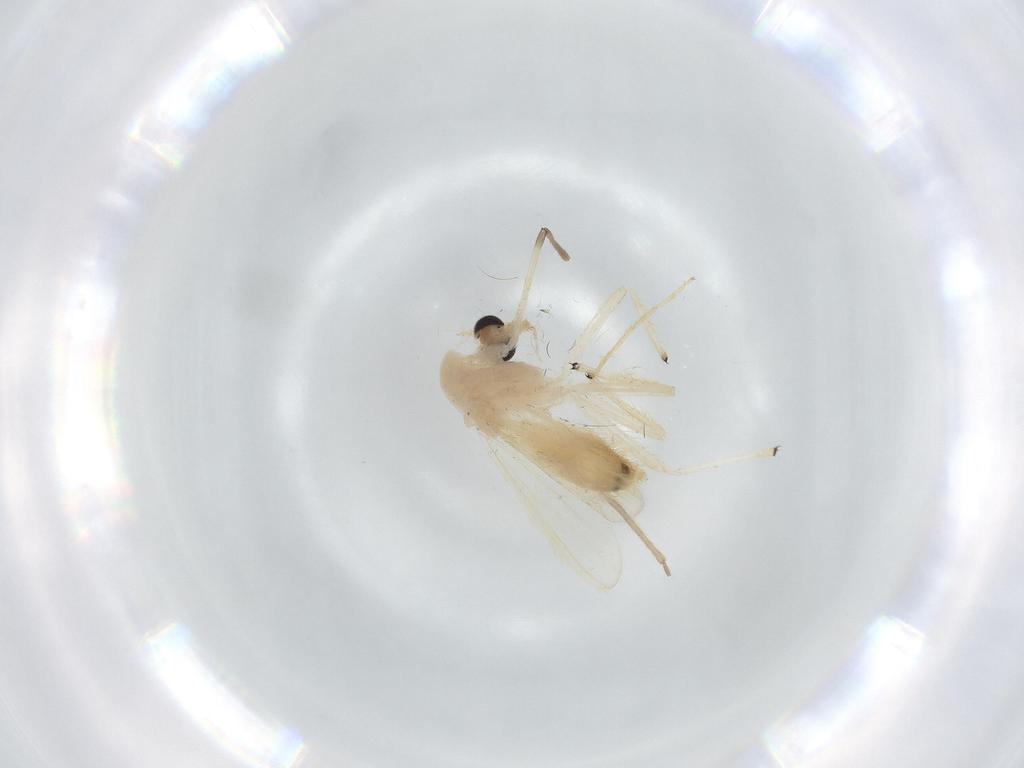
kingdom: Animalia
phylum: Arthropoda
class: Insecta
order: Diptera
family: Chironomidae
